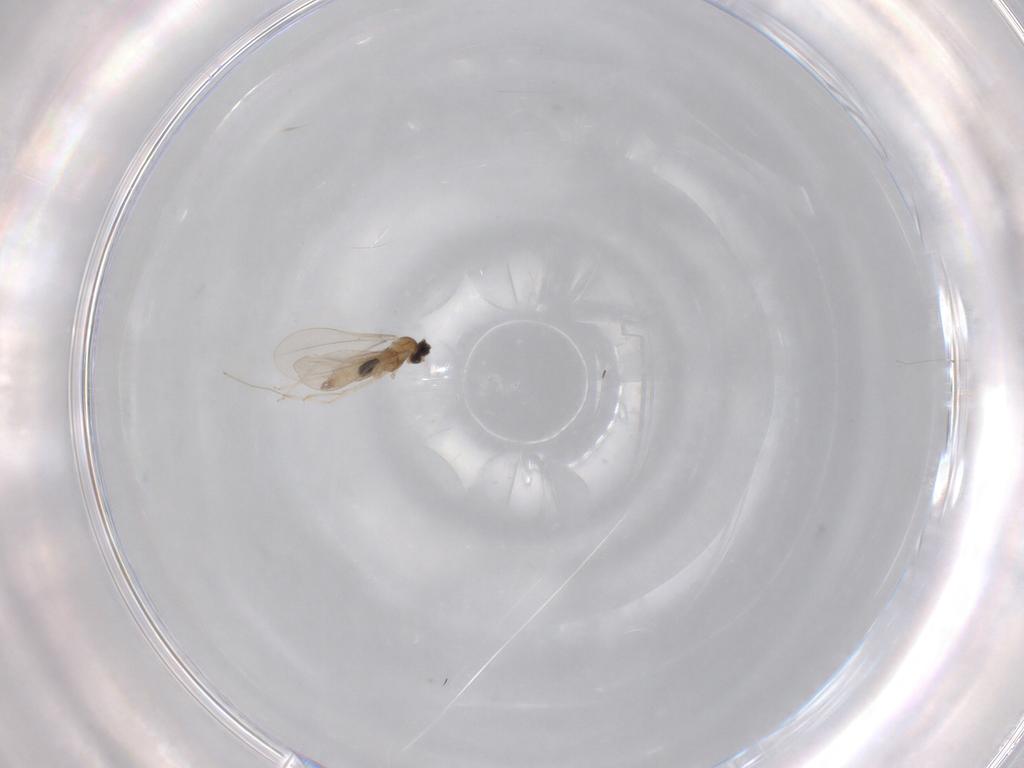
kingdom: Animalia
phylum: Arthropoda
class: Insecta
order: Diptera
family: Cecidomyiidae
